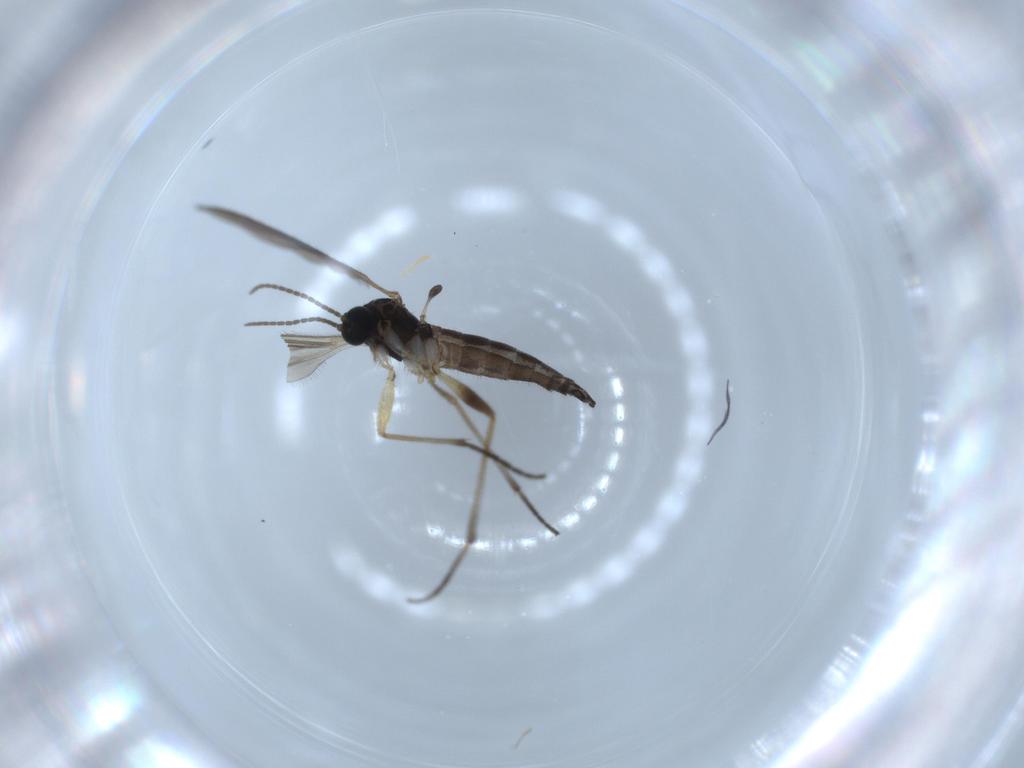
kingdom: Animalia
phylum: Arthropoda
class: Insecta
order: Diptera
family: Sciaridae
